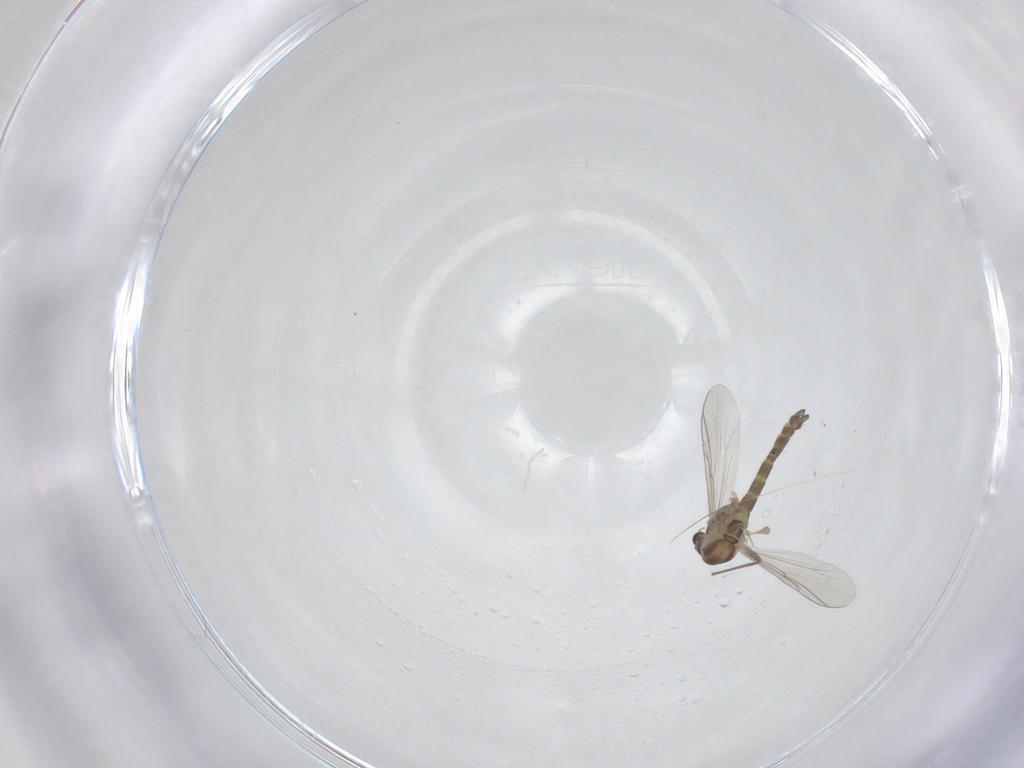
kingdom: Animalia
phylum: Arthropoda
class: Insecta
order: Diptera
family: Psychodidae
